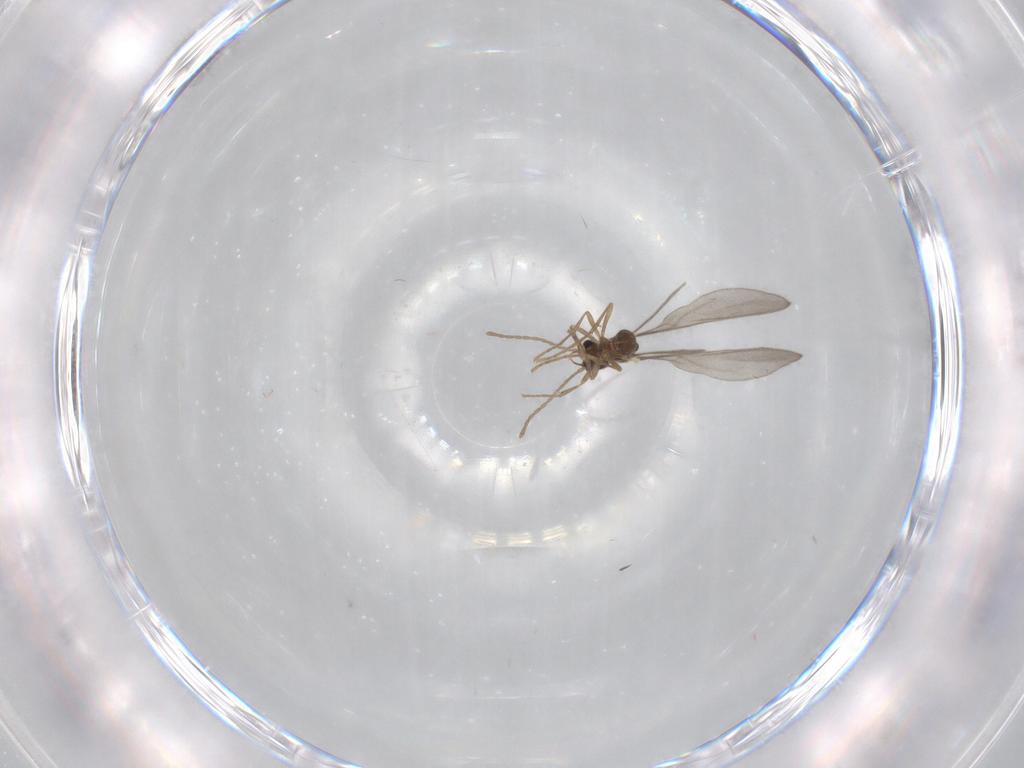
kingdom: Animalia
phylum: Arthropoda
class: Insecta
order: Hymenoptera
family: Formicidae
